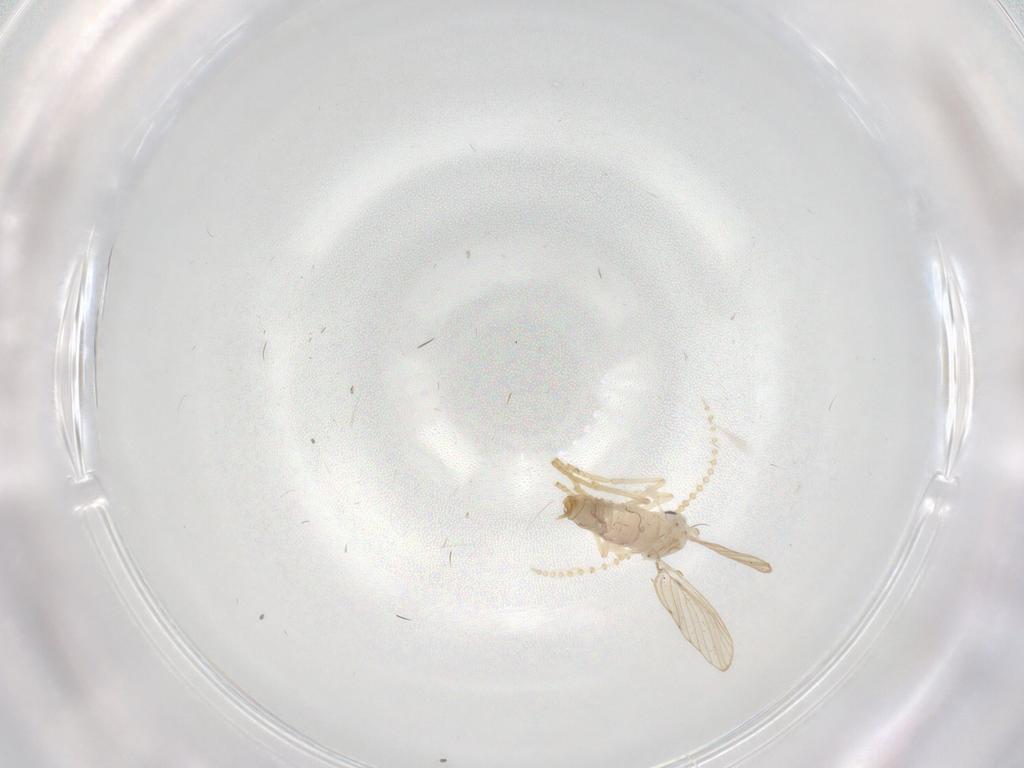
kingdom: Animalia
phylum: Arthropoda
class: Insecta
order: Diptera
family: Psychodidae
